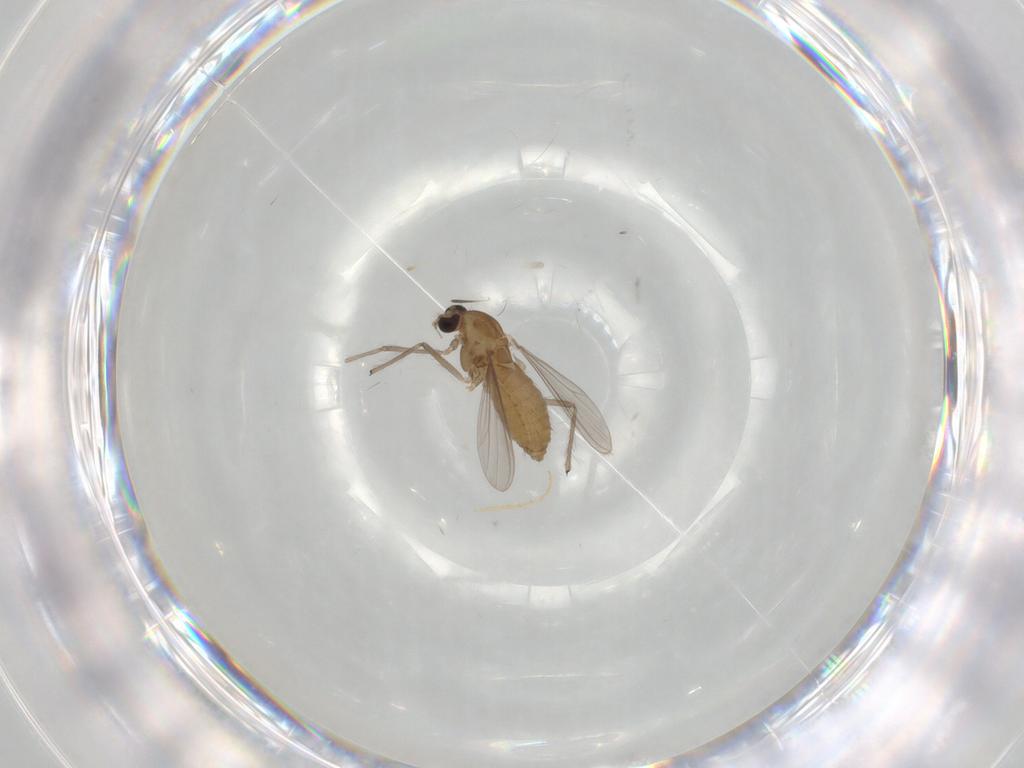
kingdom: Animalia
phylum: Arthropoda
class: Insecta
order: Diptera
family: Chironomidae
